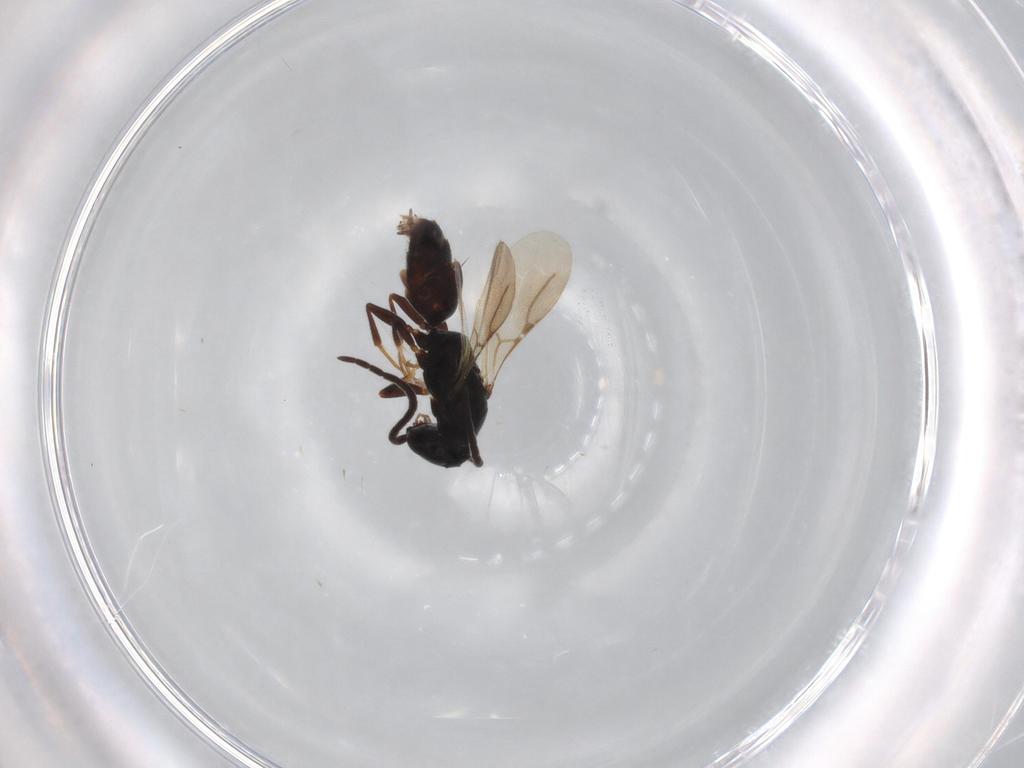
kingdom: Animalia
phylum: Arthropoda
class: Insecta
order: Hymenoptera
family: Bethylidae
